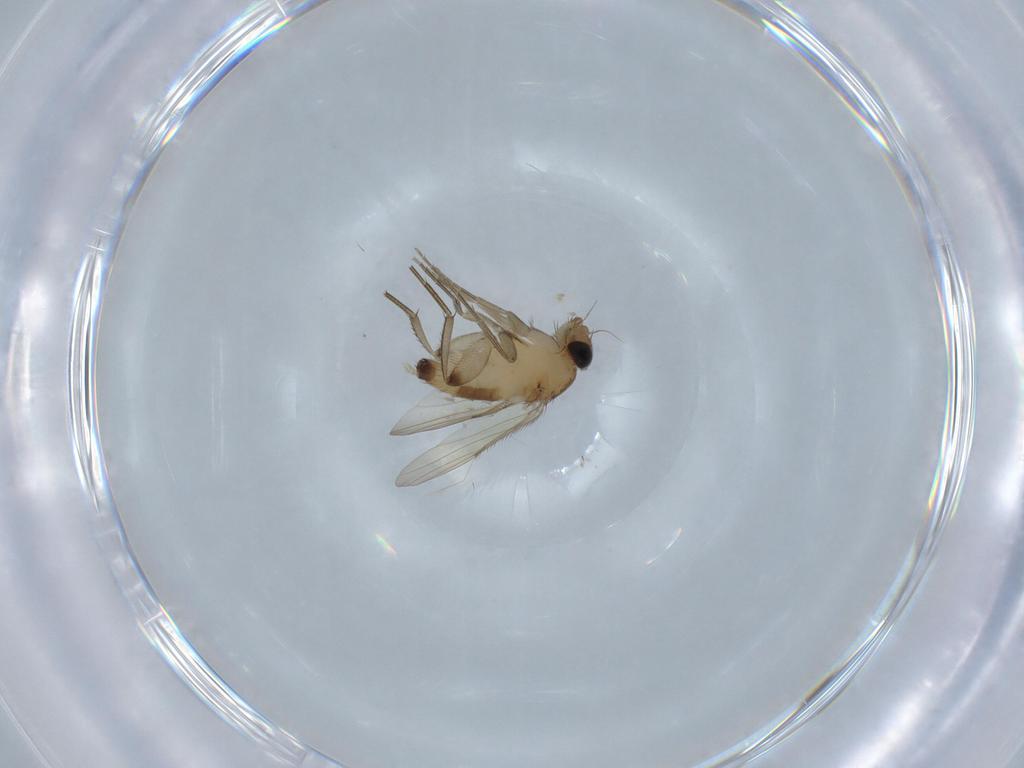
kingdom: Animalia
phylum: Arthropoda
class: Insecta
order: Diptera
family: Phoridae
